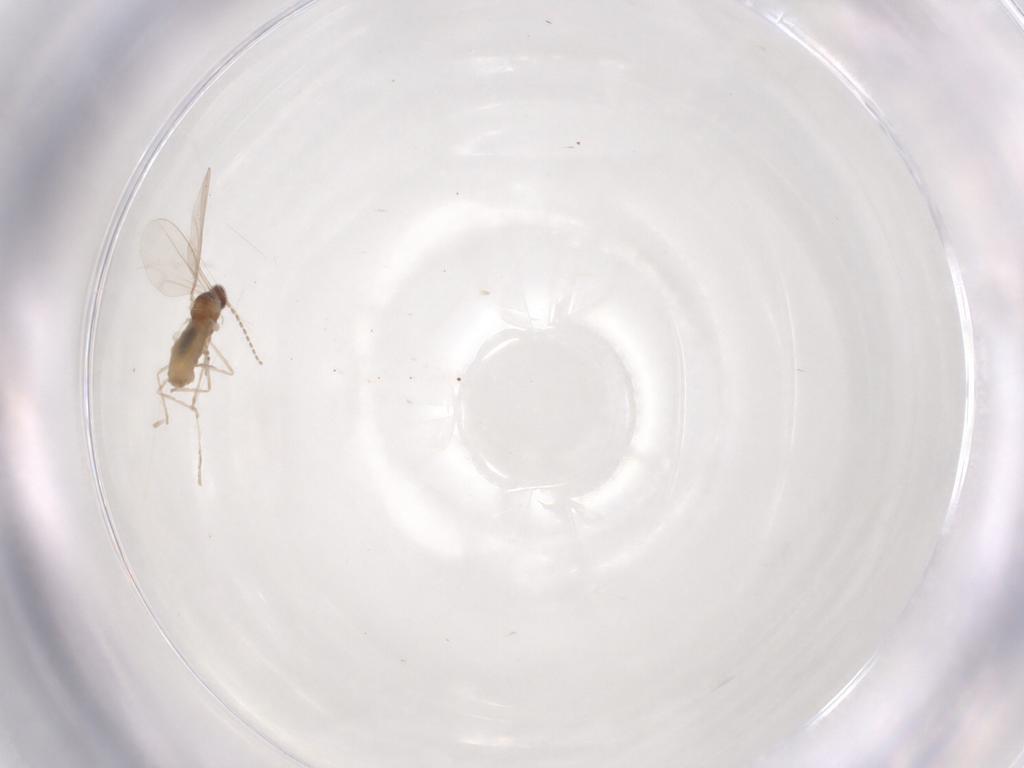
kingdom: Animalia
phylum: Arthropoda
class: Insecta
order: Diptera
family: Cecidomyiidae
